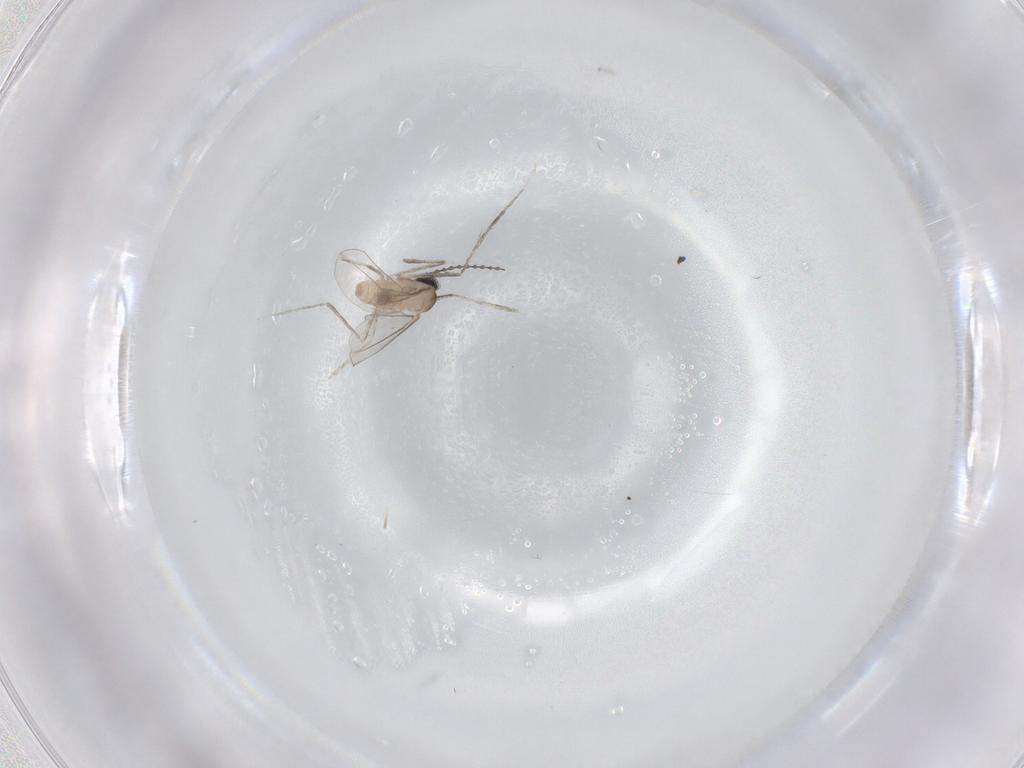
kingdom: Animalia
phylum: Arthropoda
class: Insecta
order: Diptera
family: Cecidomyiidae
